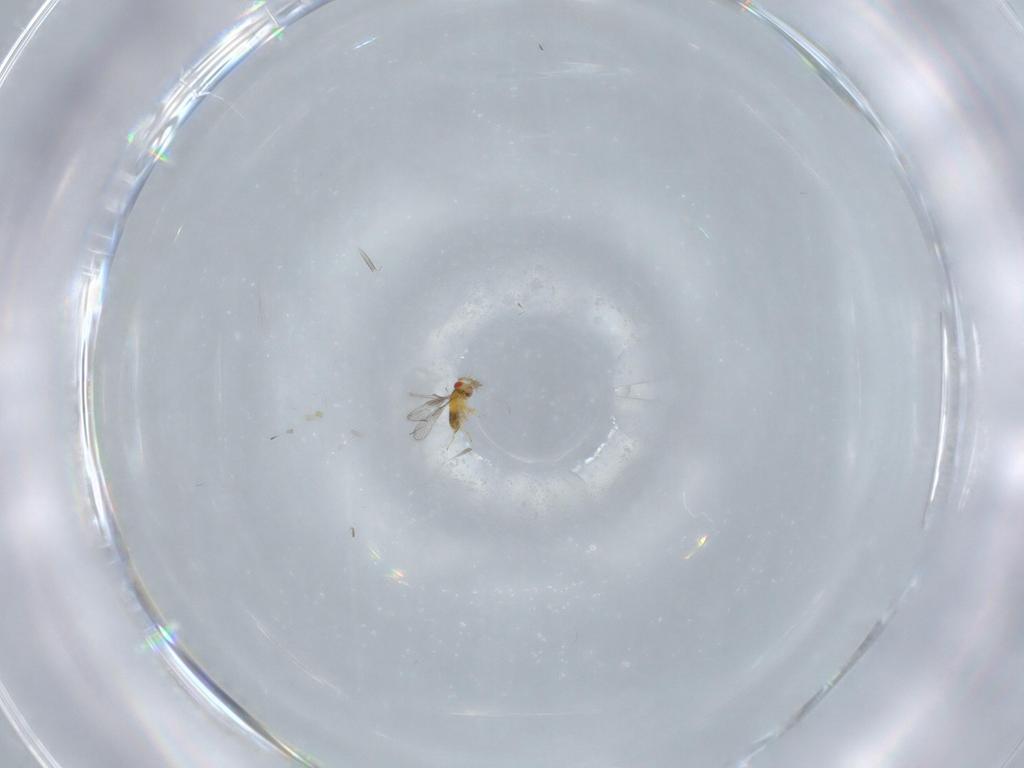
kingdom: Animalia
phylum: Arthropoda
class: Insecta
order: Hymenoptera
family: Trichogrammatidae
